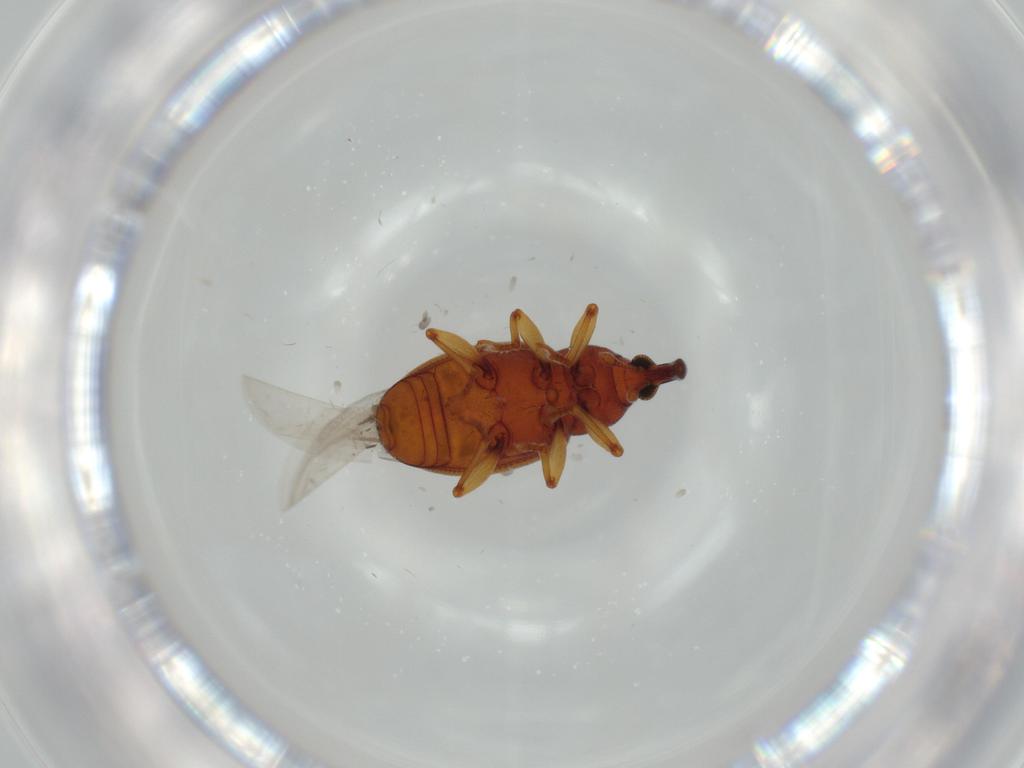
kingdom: Animalia
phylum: Arthropoda
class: Insecta
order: Coleoptera
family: Curculionidae
